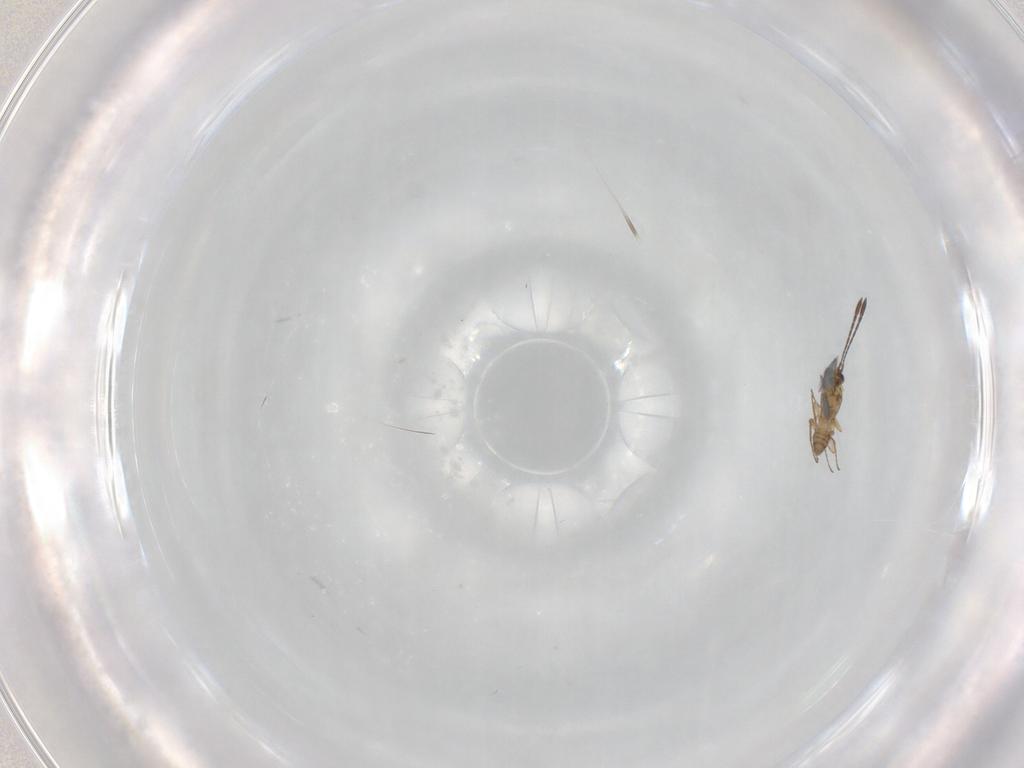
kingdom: Animalia
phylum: Arthropoda
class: Insecta
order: Hymenoptera
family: Mymaridae
